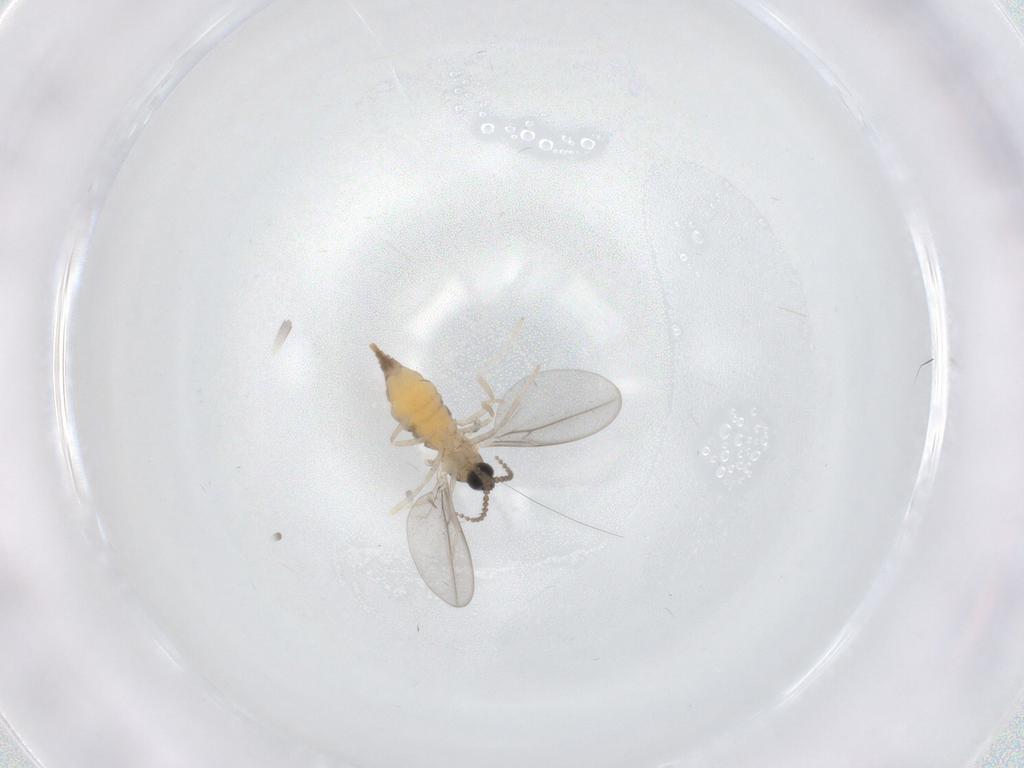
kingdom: Animalia
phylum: Arthropoda
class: Insecta
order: Diptera
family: Cecidomyiidae
